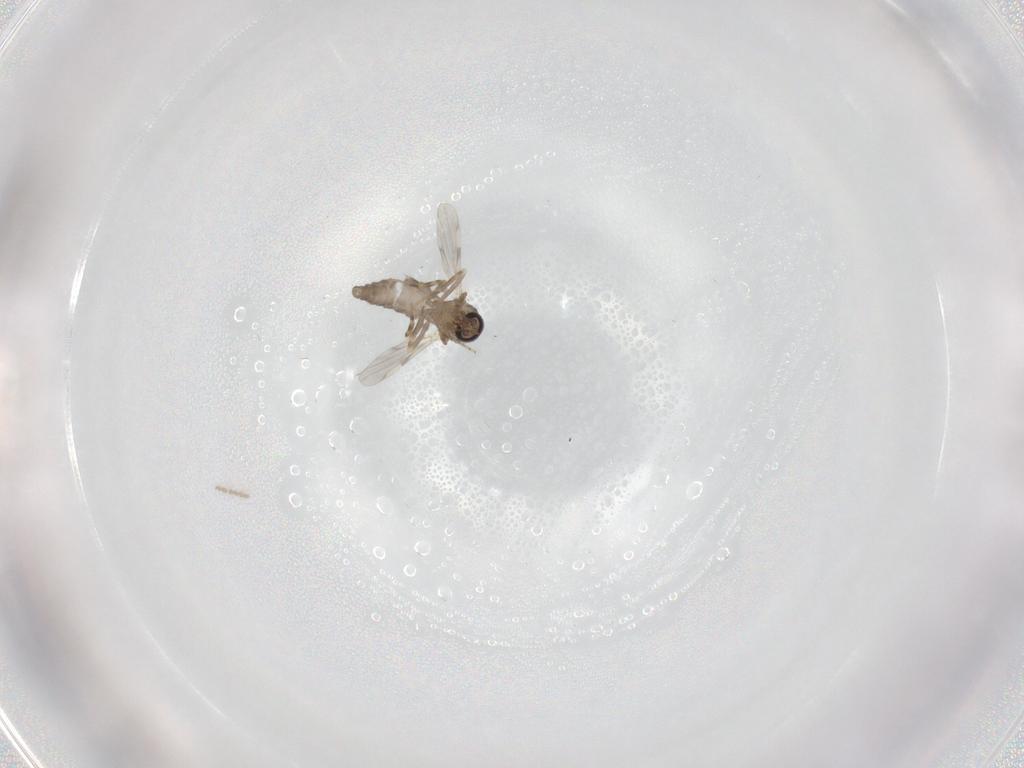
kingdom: Animalia
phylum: Arthropoda
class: Insecta
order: Diptera
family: Ceratopogonidae
